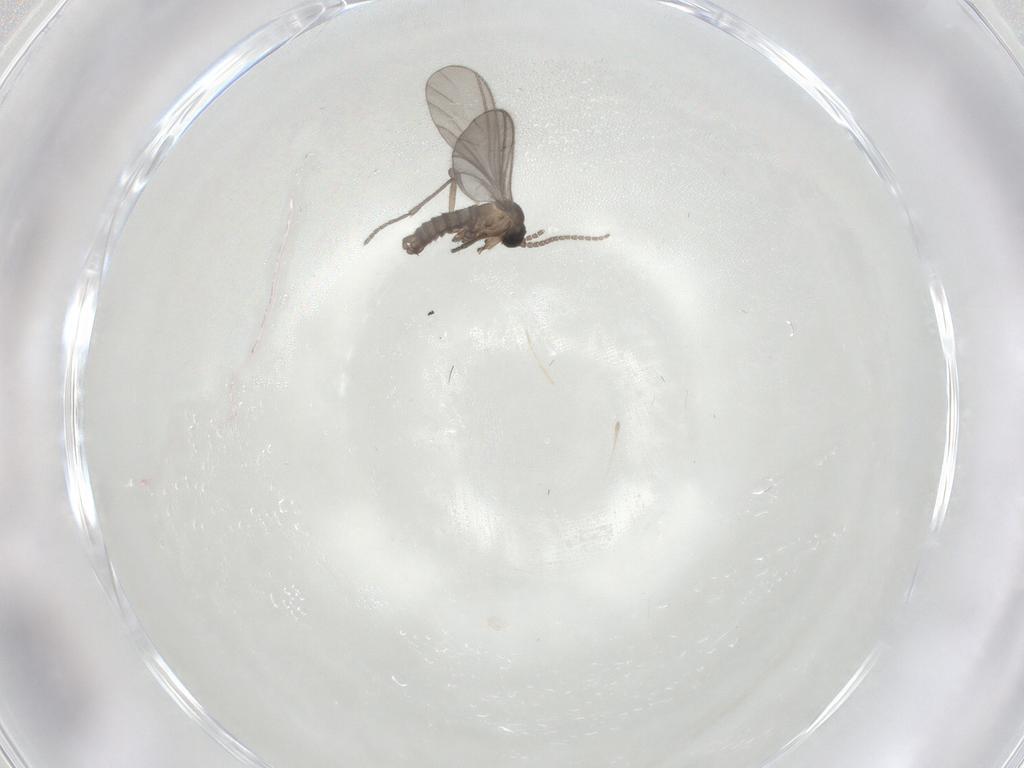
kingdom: Animalia
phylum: Arthropoda
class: Insecta
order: Diptera
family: Sciaridae
